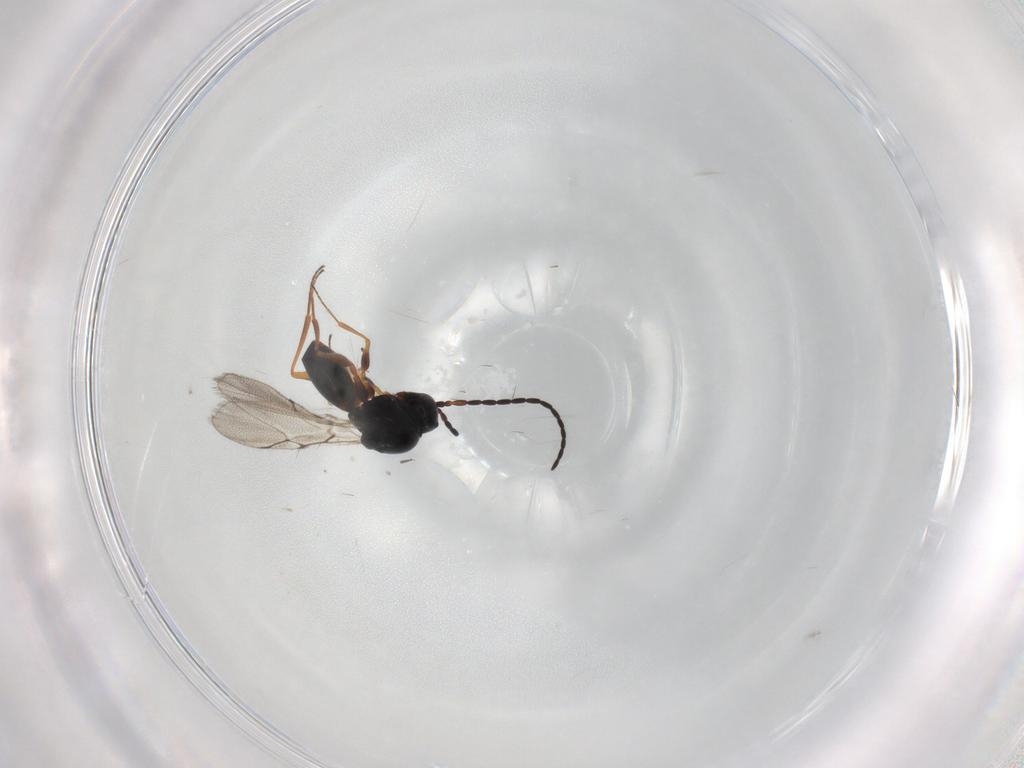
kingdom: Animalia
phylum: Arthropoda
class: Insecta
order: Hymenoptera
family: Figitidae
